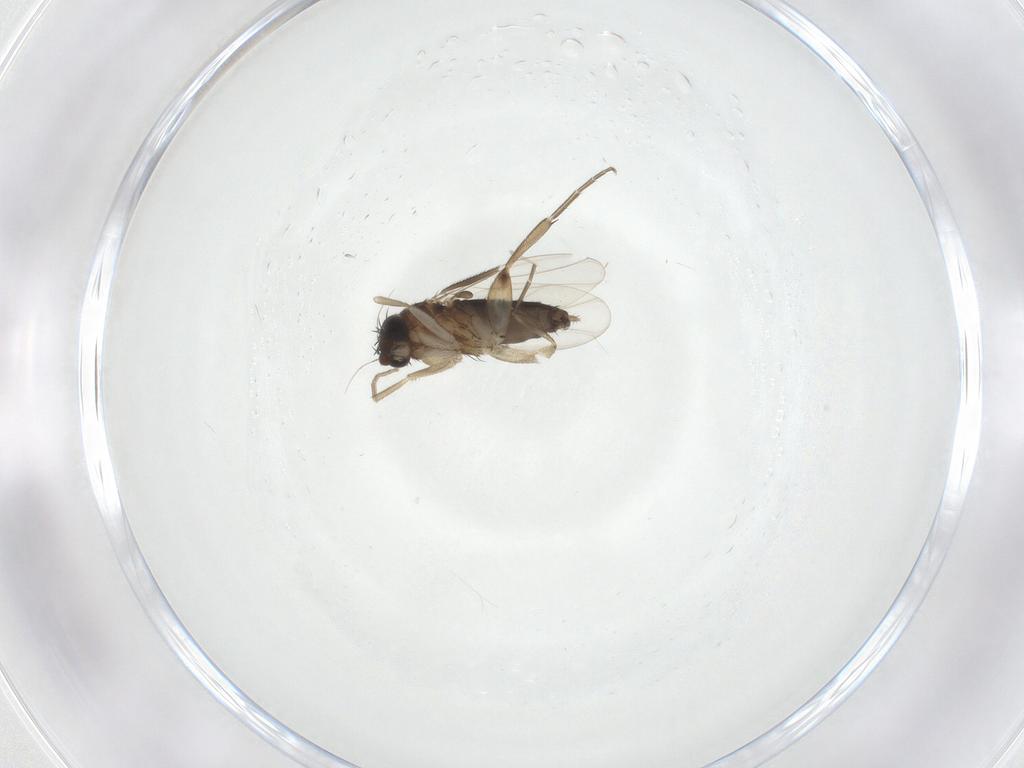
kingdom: Animalia
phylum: Arthropoda
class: Insecta
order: Diptera
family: Phoridae
